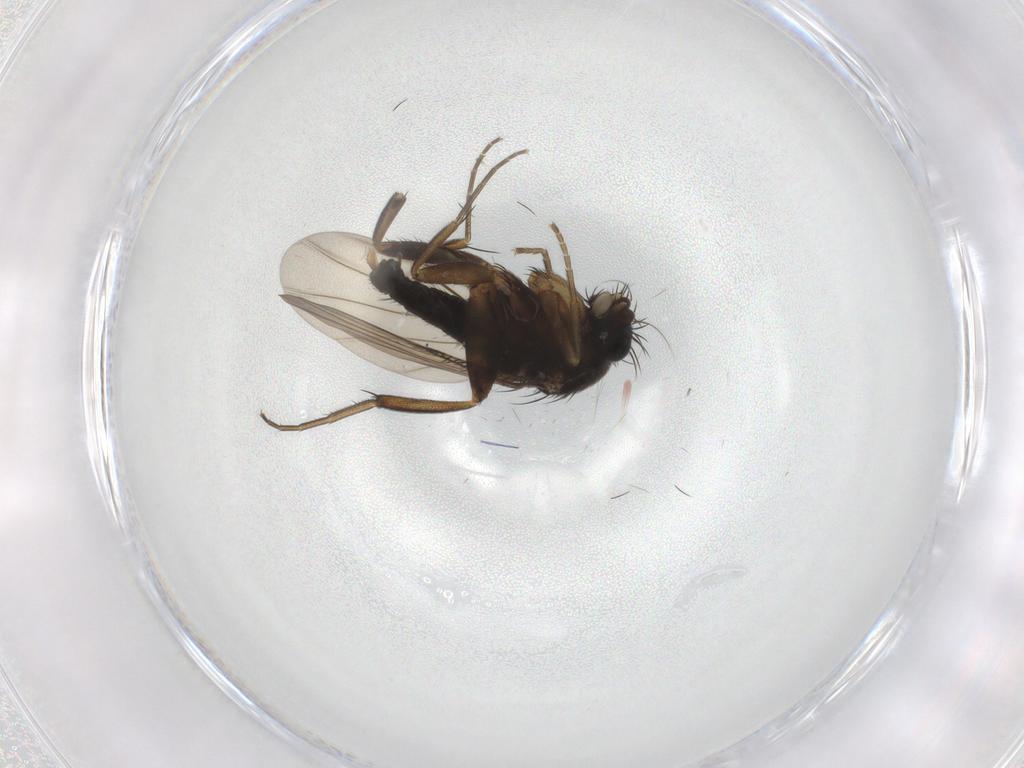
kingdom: Animalia
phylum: Arthropoda
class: Insecta
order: Diptera
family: Phoridae
